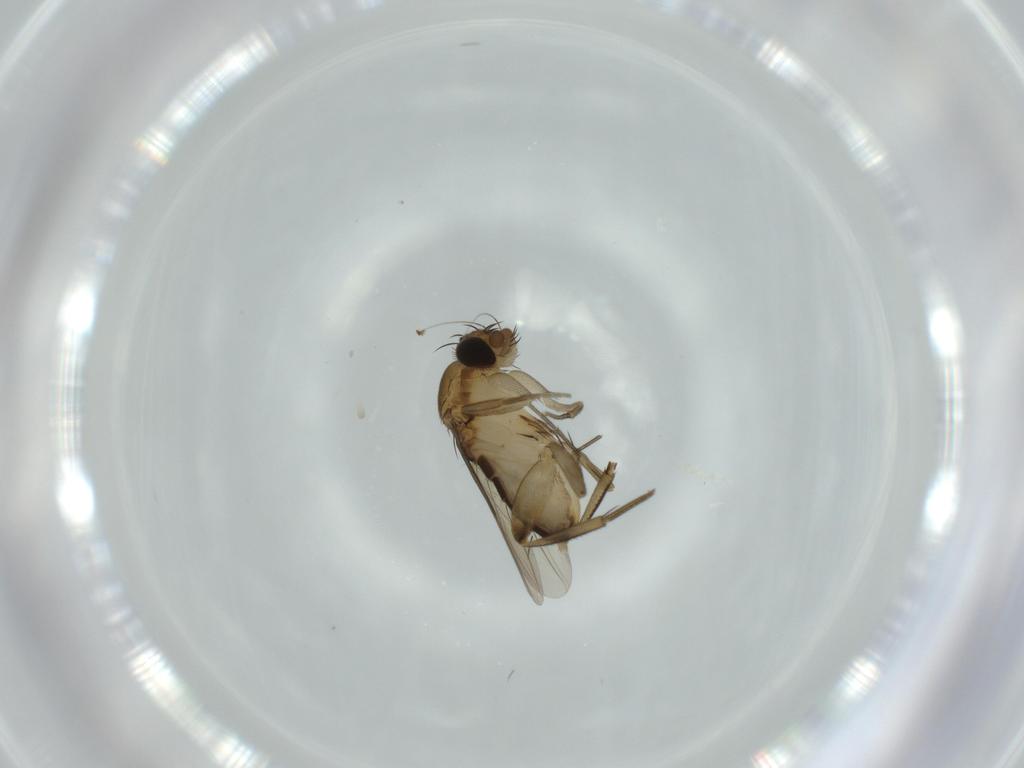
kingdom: Animalia
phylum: Arthropoda
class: Insecta
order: Diptera
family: Phoridae
